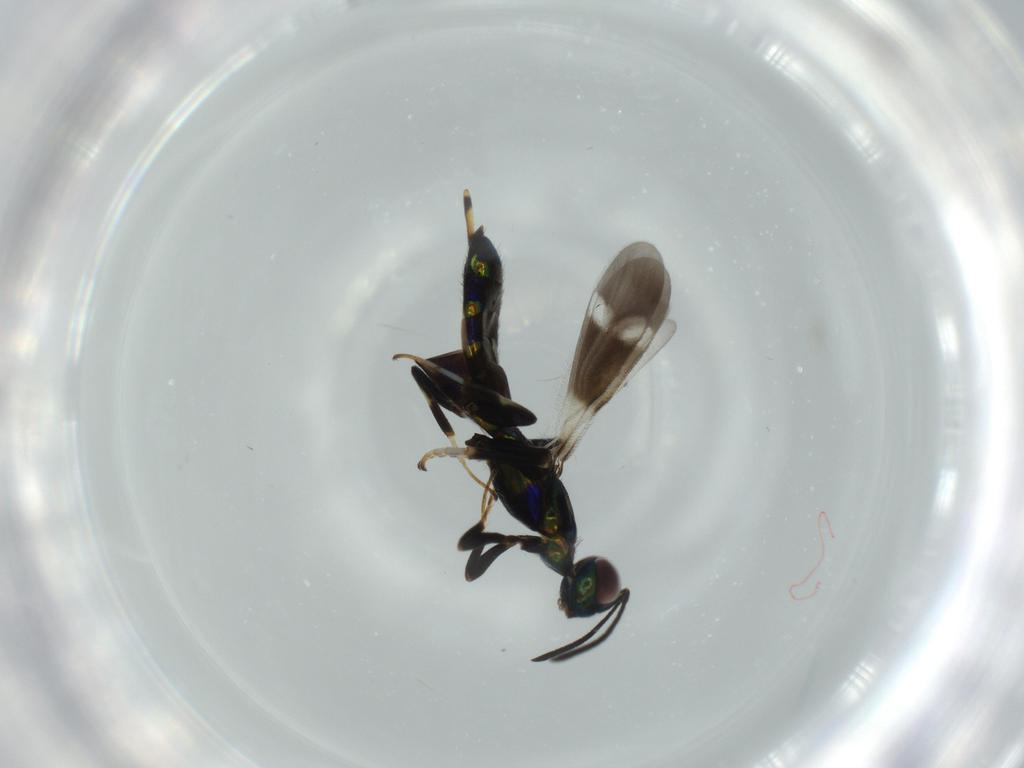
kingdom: Animalia
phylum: Arthropoda
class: Insecta
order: Hymenoptera
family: Eupelmidae
